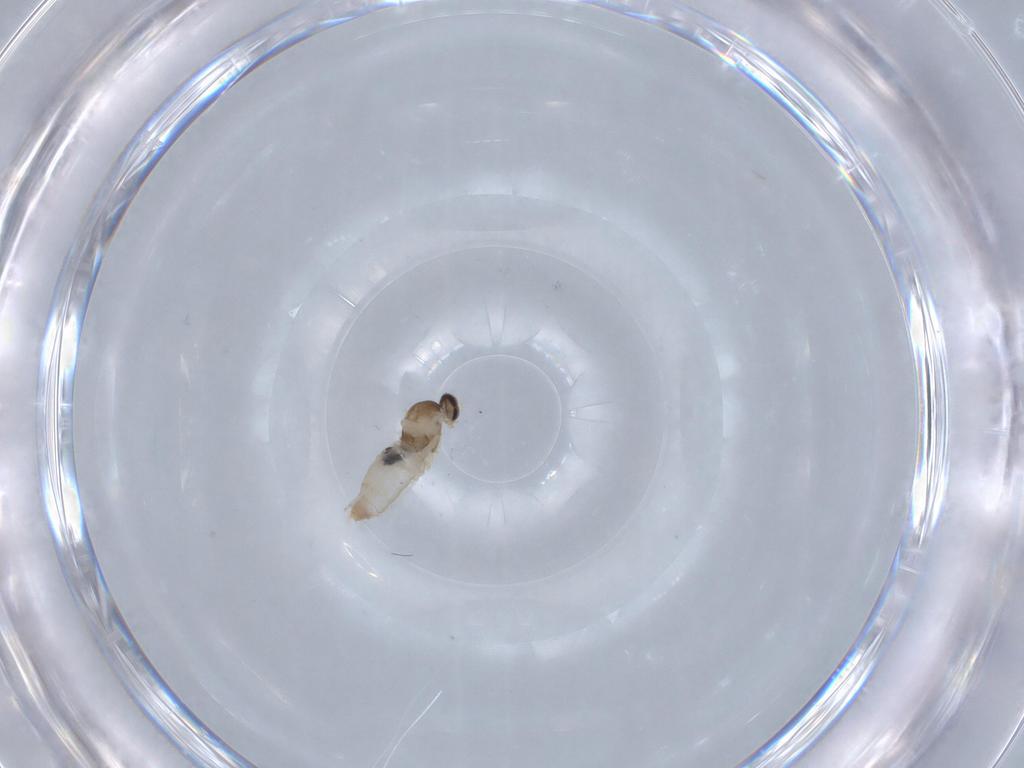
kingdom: Animalia
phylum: Arthropoda
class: Insecta
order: Diptera
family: Cecidomyiidae
